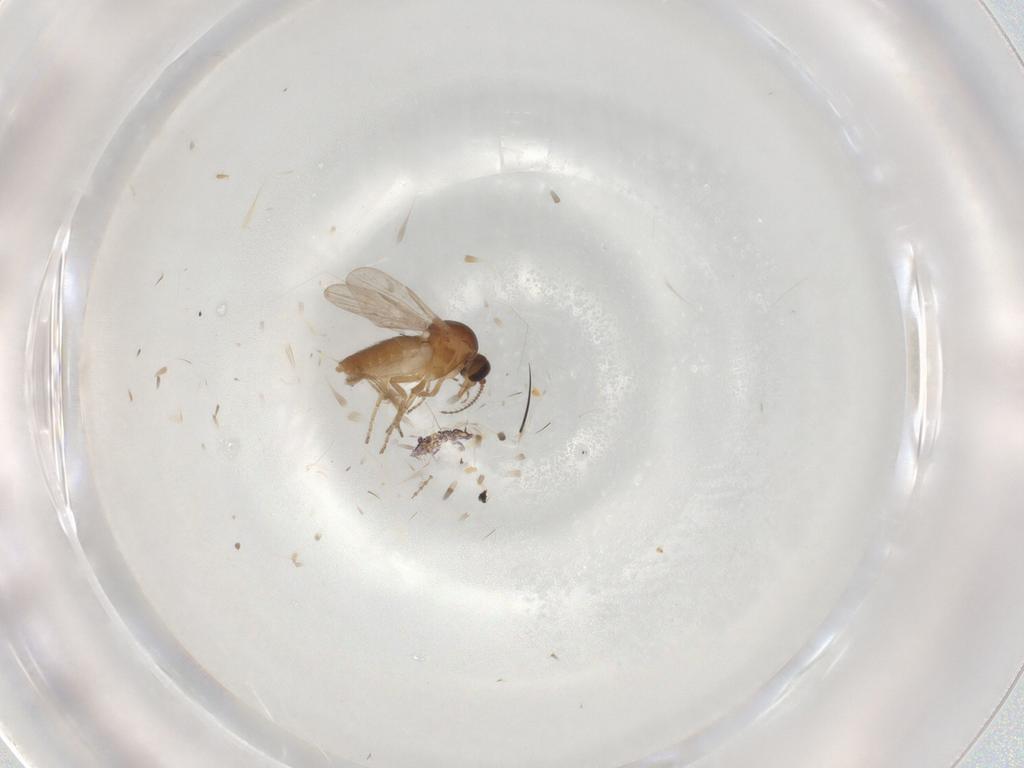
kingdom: Animalia
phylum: Arthropoda
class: Insecta
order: Diptera
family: Ceratopogonidae
